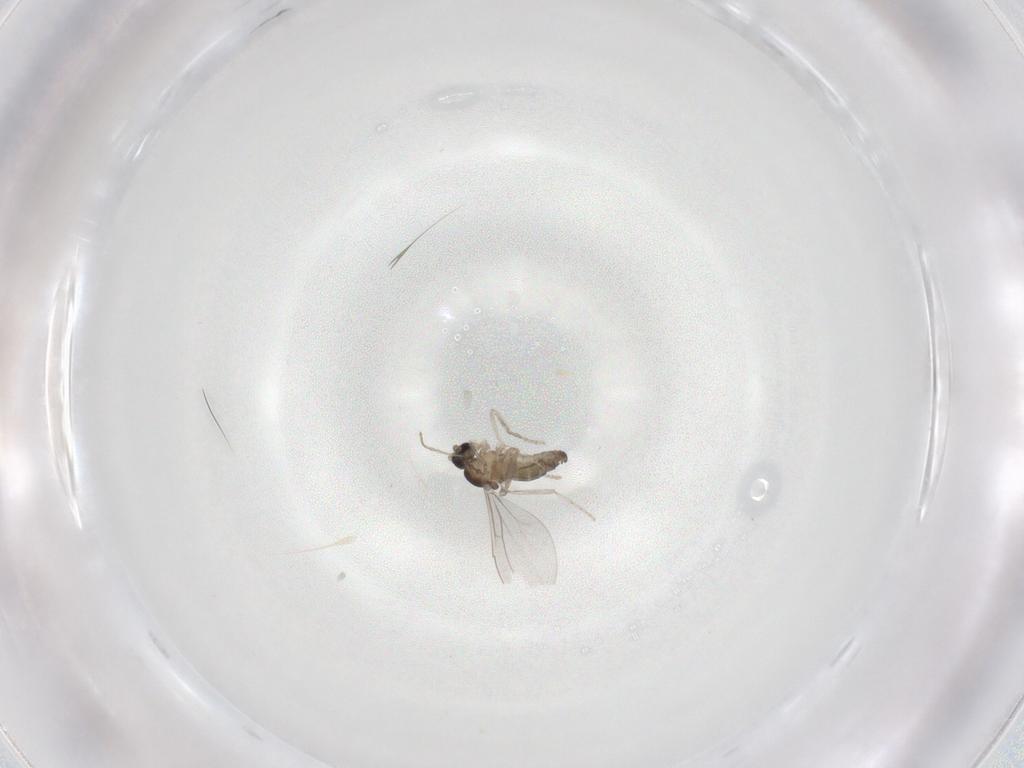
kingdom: Animalia
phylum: Arthropoda
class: Insecta
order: Diptera
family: Cecidomyiidae
